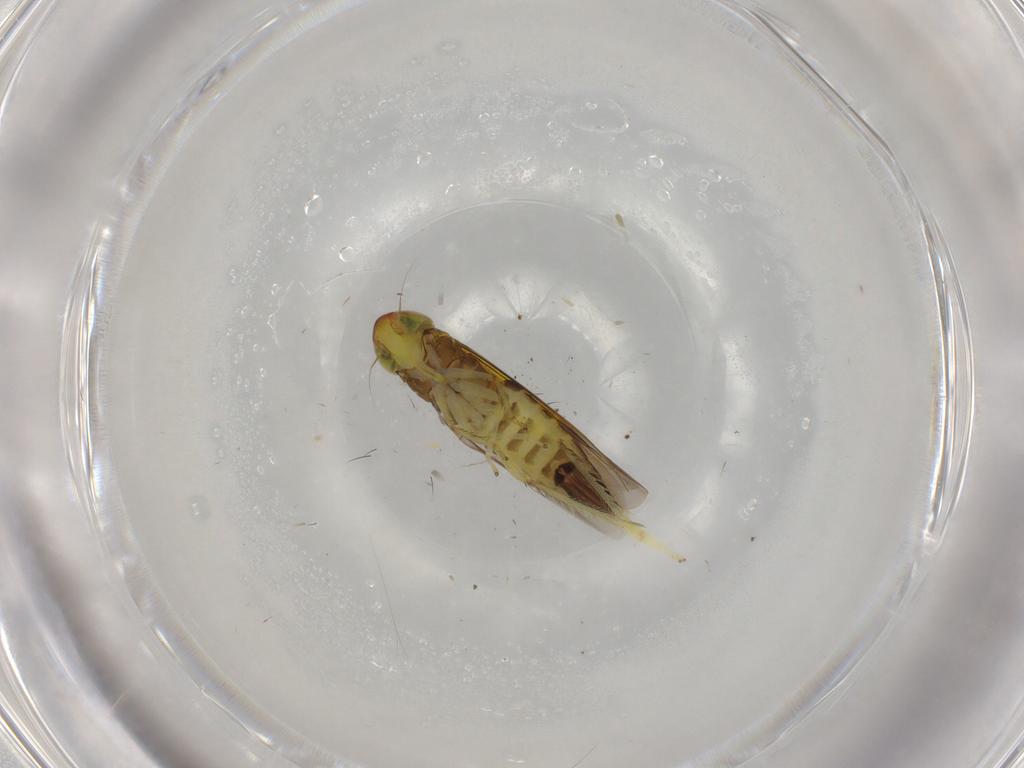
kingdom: Animalia
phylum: Arthropoda
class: Insecta
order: Hemiptera
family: Cicadellidae
